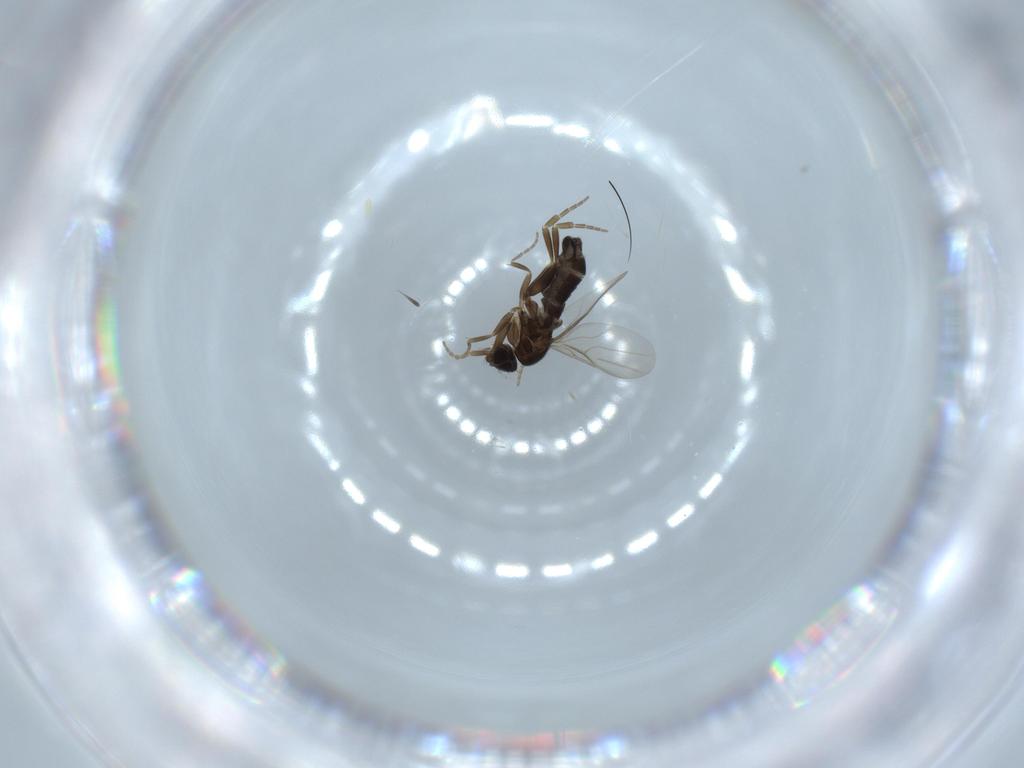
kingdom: Animalia
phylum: Arthropoda
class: Insecta
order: Diptera
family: Phoridae
